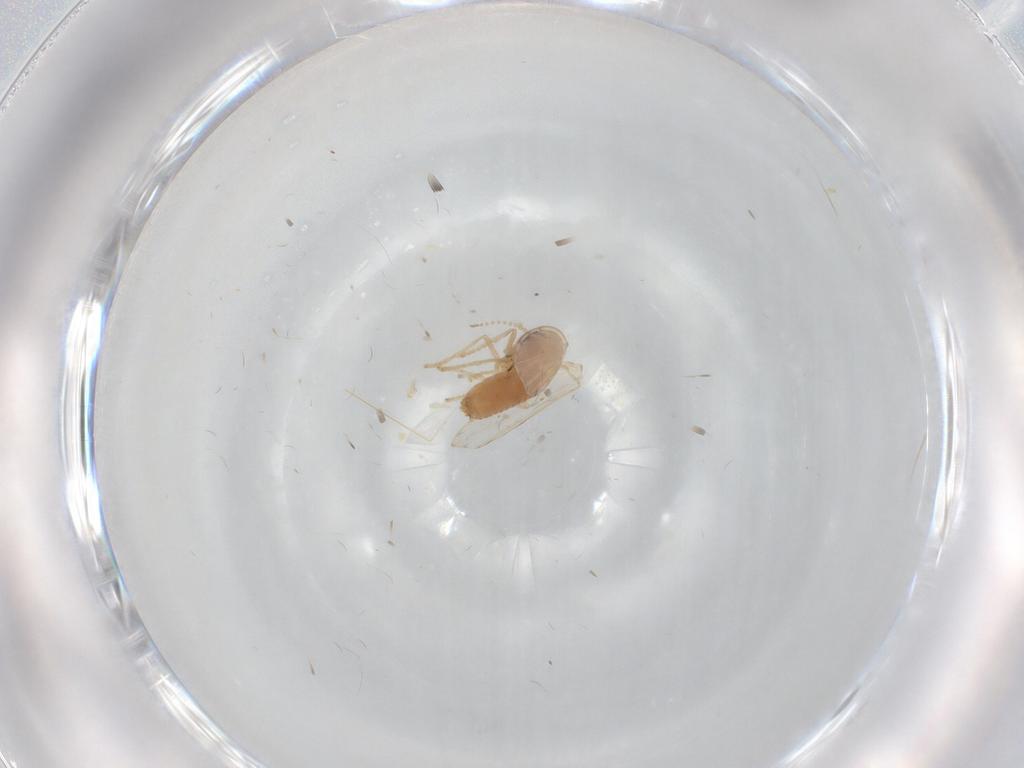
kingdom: Animalia
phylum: Arthropoda
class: Insecta
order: Diptera
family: Psychodidae
